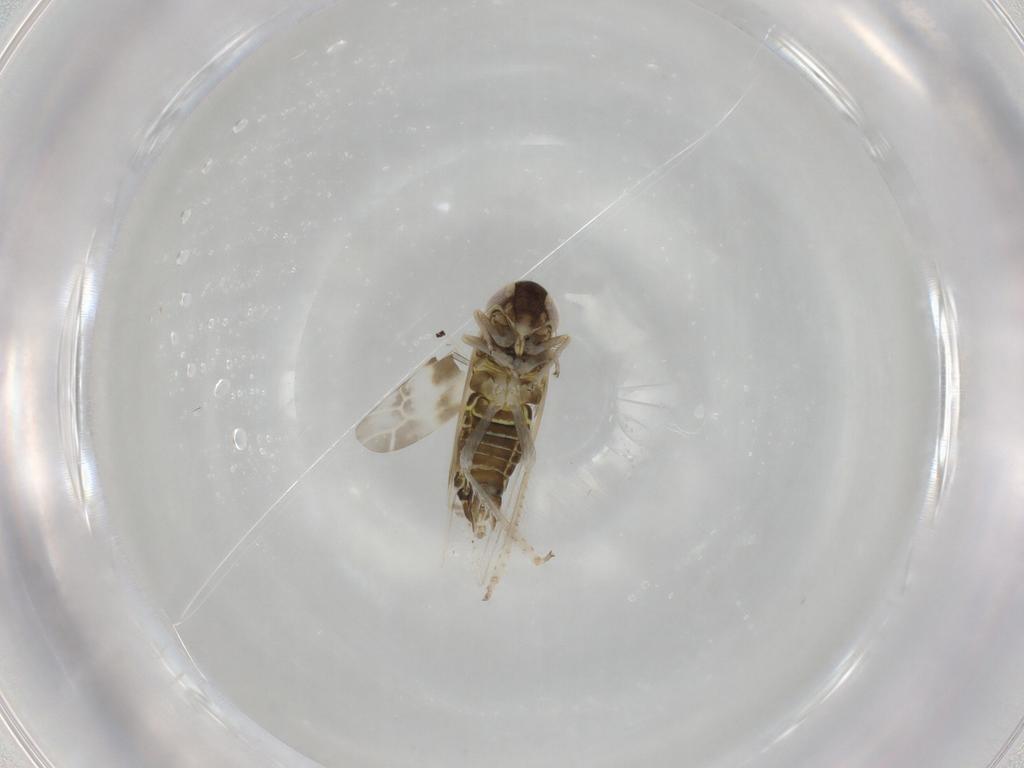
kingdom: Animalia
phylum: Arthropoda
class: Insecta
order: Hemiptera
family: Cicadellidae
